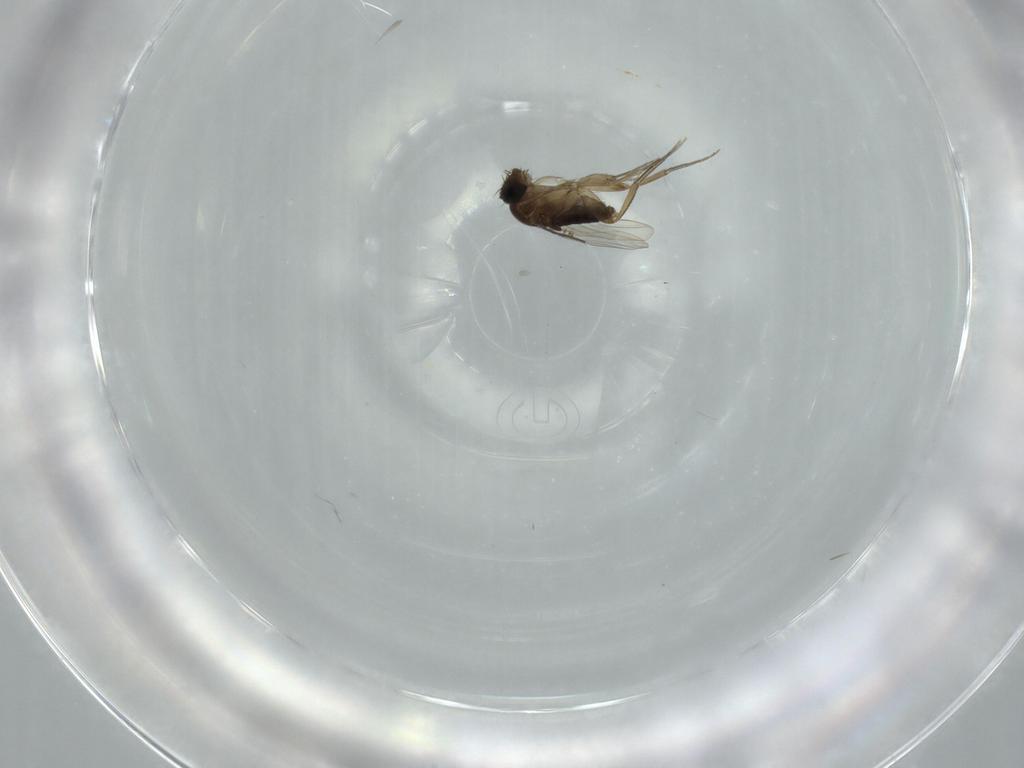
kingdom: Animalia
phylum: Arthropoda
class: Insecta
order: Diptera
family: Phoridae
